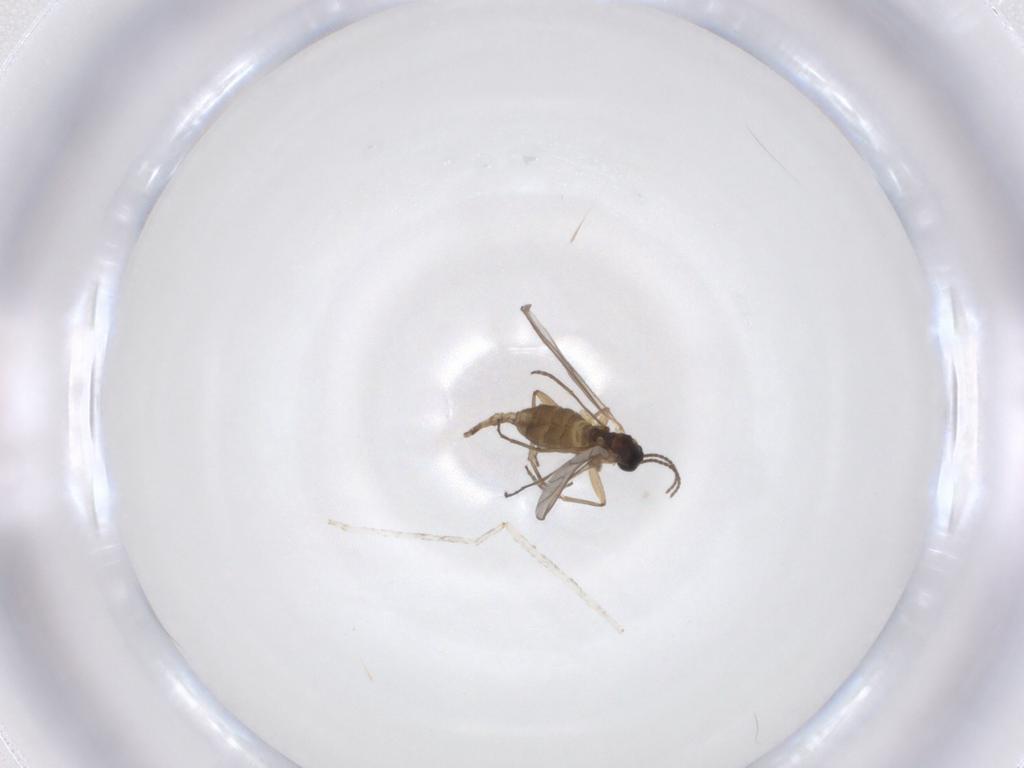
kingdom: Animalia
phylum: Arthropoda
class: Insecta
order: Diptera
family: Cecidomyiidae
